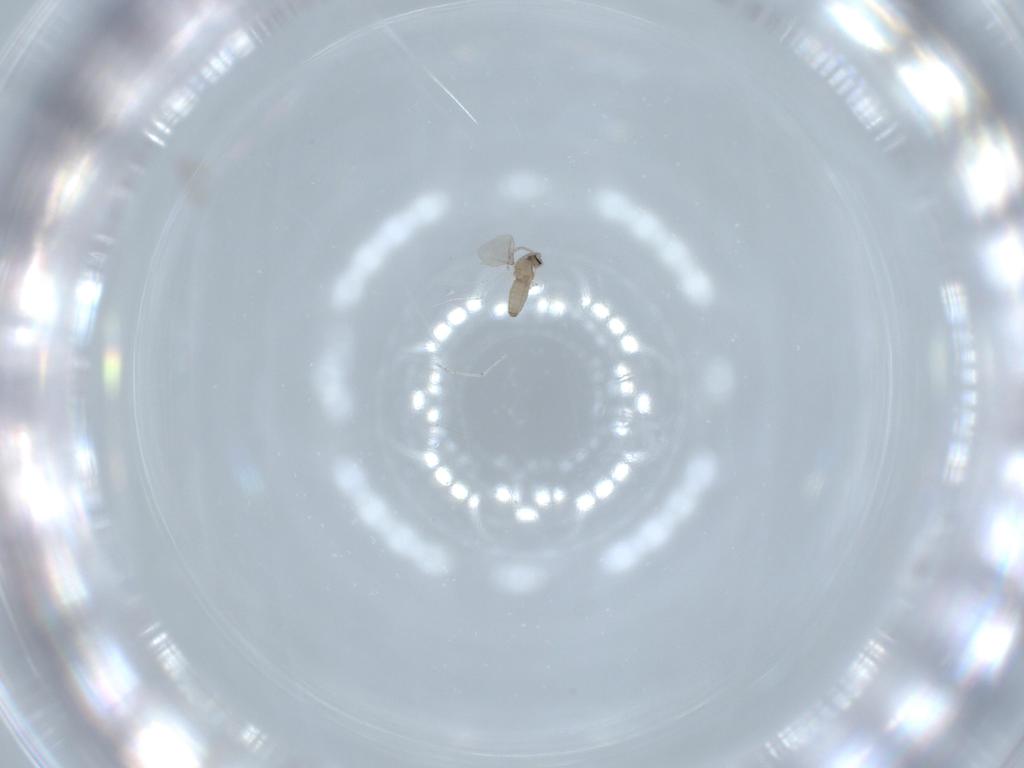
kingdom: Animalia
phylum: Arthropoda
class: Insecta
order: Diptera
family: Cecidomyiidae
